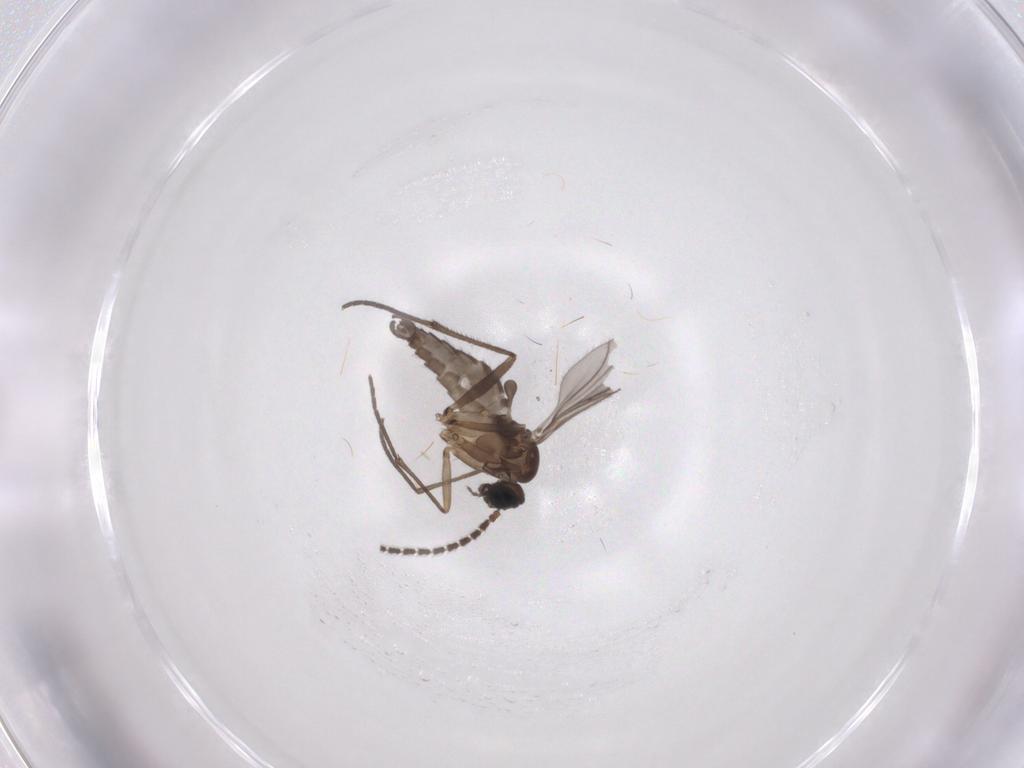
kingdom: Animalia
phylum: Arthropoda
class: Insecta
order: Diptera
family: Sciaridae
